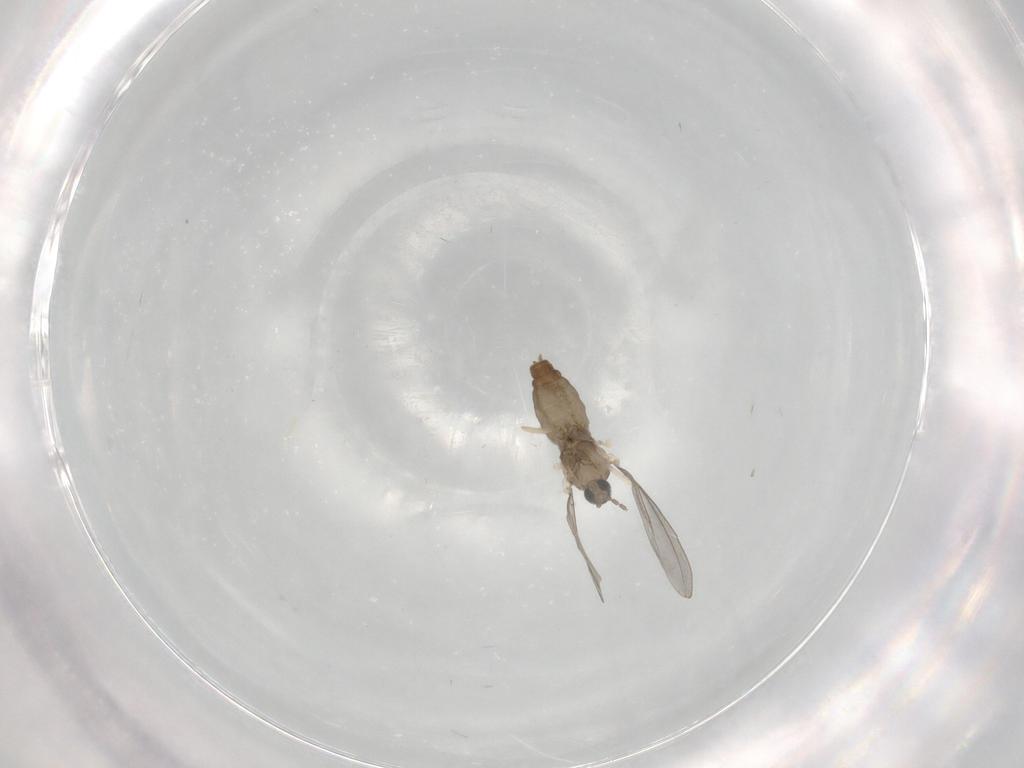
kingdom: Animalia
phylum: Arthropoda
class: Insecta
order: Diptera
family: Sphaeroceridae
